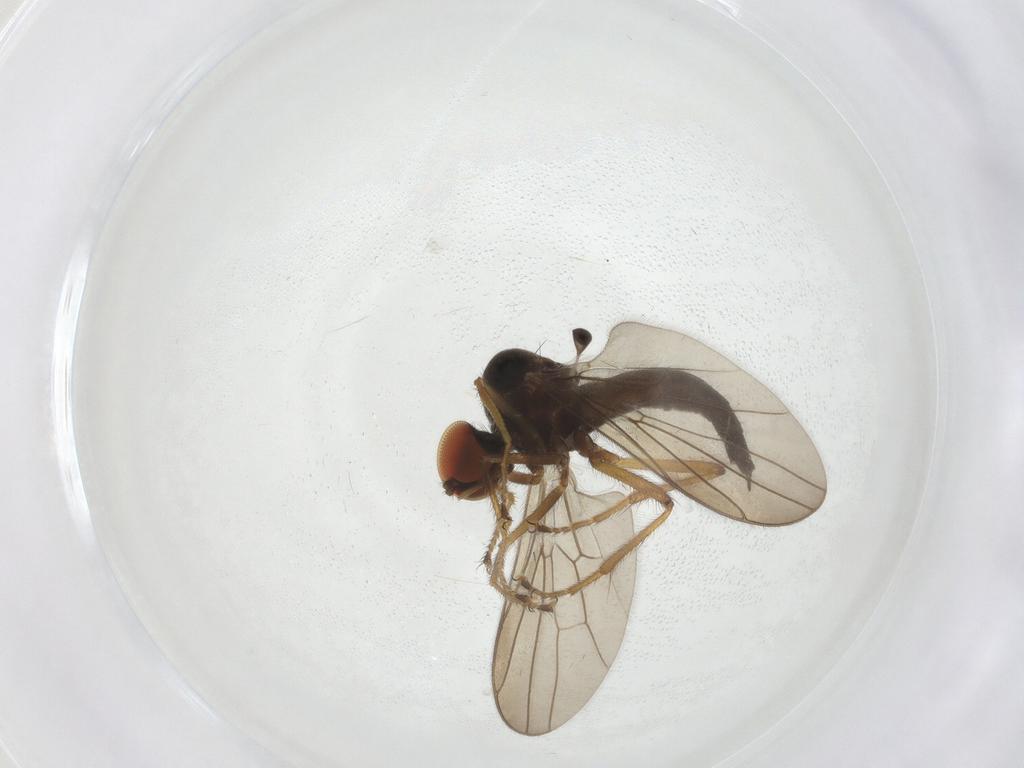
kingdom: Animalia
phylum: Arthropoda
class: Insecta
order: Diptera
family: Hybotidae
